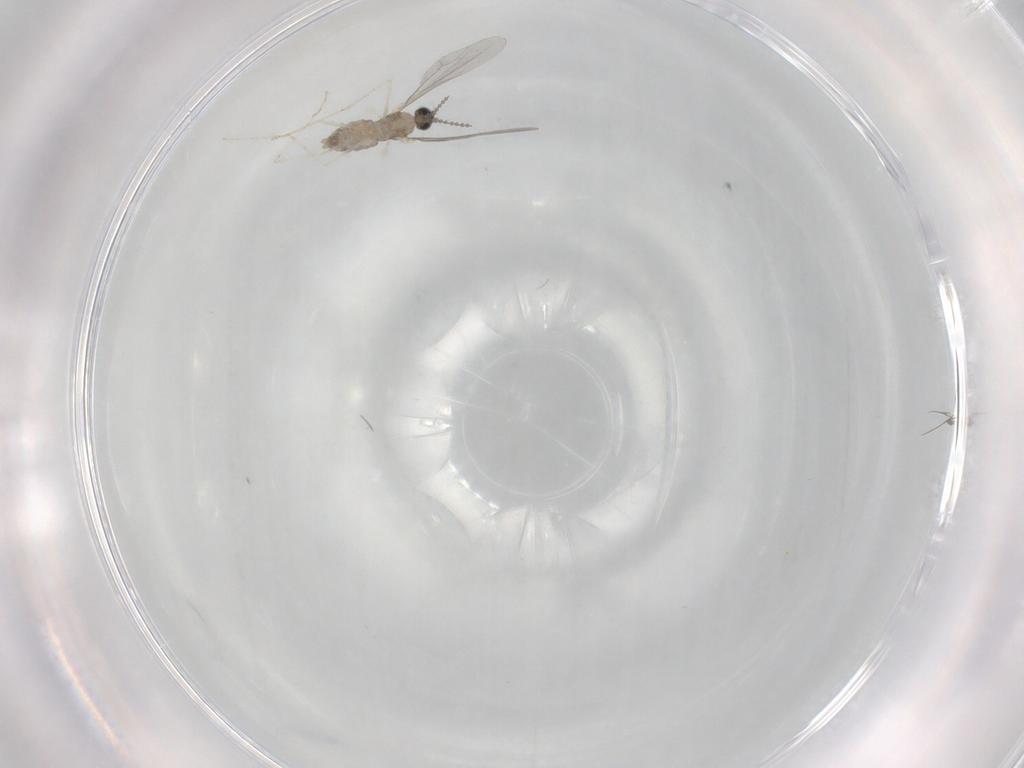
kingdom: Animalia
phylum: Arthropoda
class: Insecta
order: Diptera
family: Cecidomyiidae
